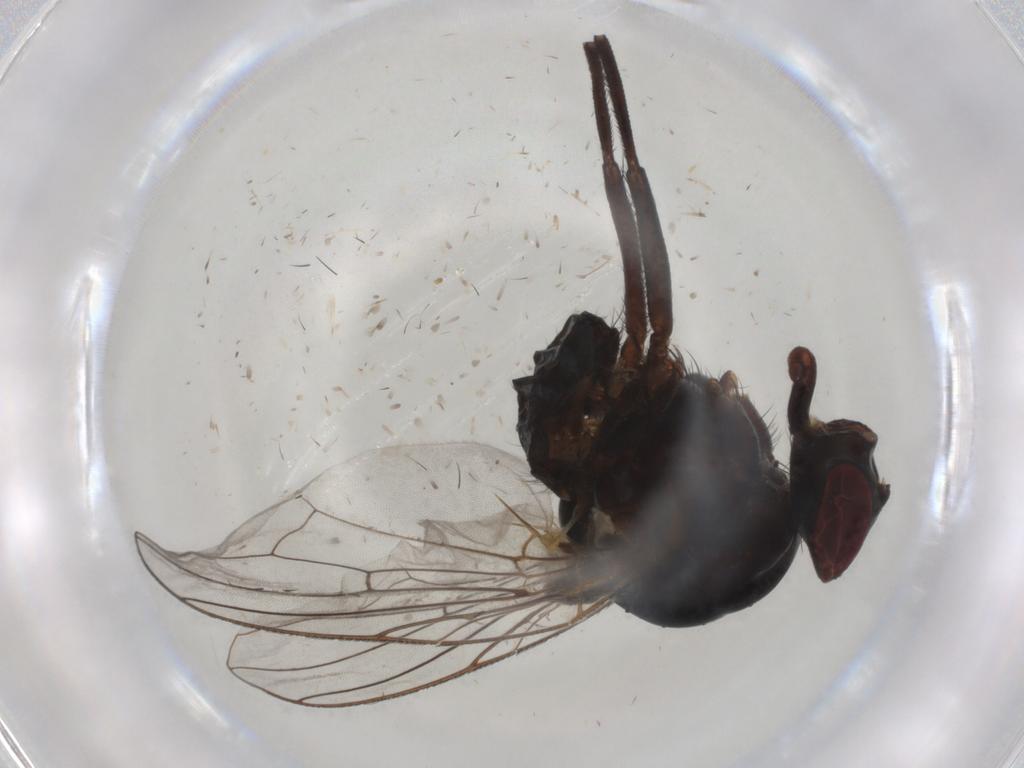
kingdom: Animalia
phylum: Arthropoda
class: Insecta
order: Diptera
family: Anthomyiidae
